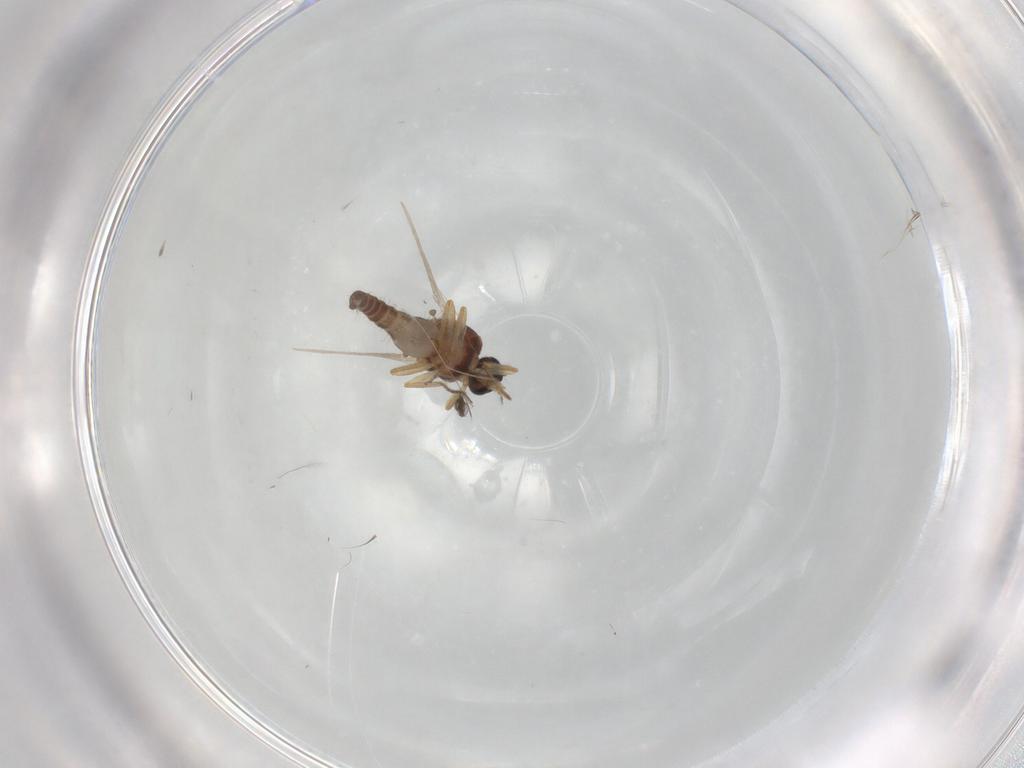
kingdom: Animalia
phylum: Arthropoda
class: Insecta
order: Diptera
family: Ceratopogonidae
